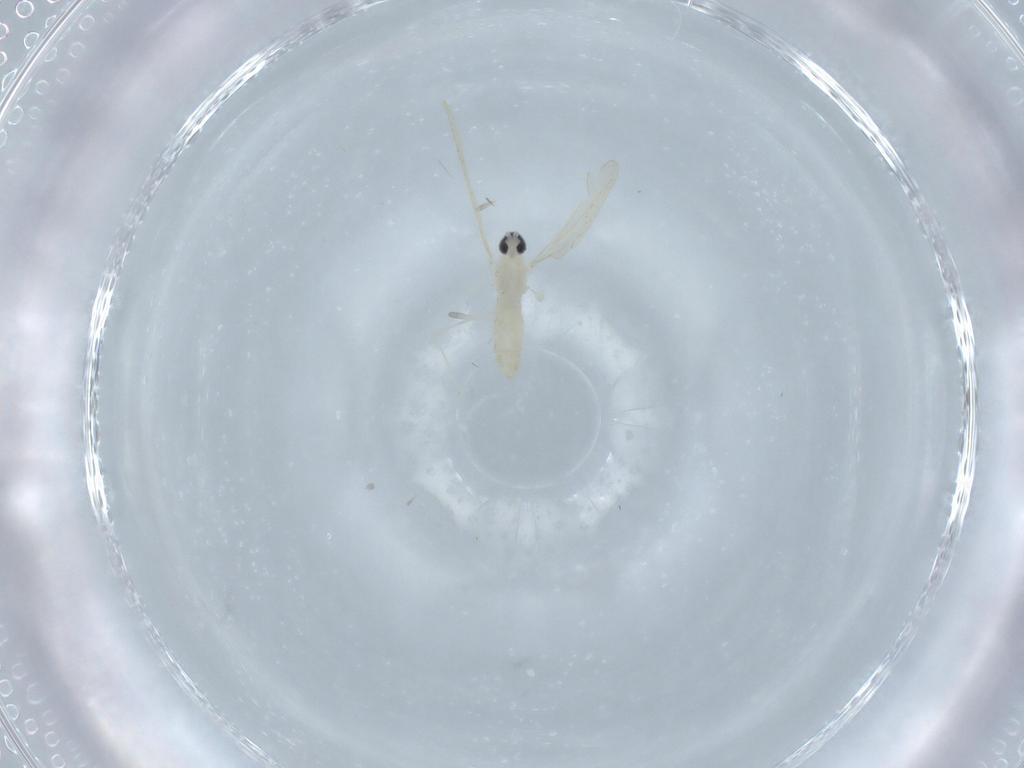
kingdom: Animalia
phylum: Arthropoda
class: Insecta
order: Diptera
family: Cecidomyiidae
